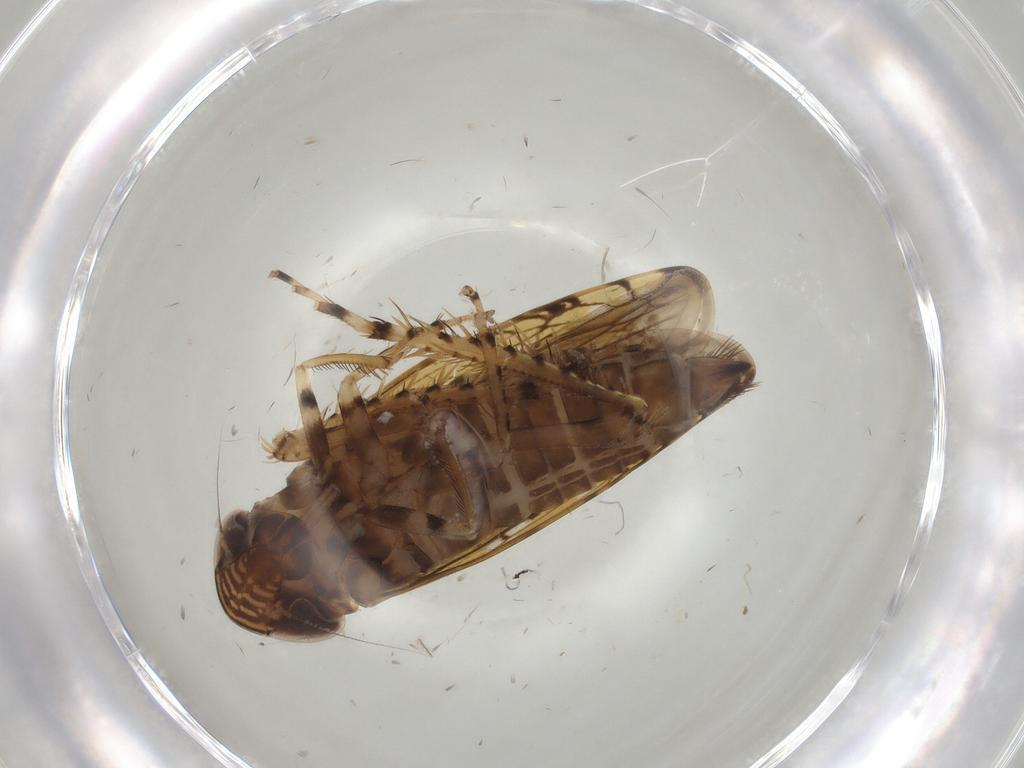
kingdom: Animalia
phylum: Arthropoda
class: Insecta
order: Hemiptera
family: Cicadellidae
